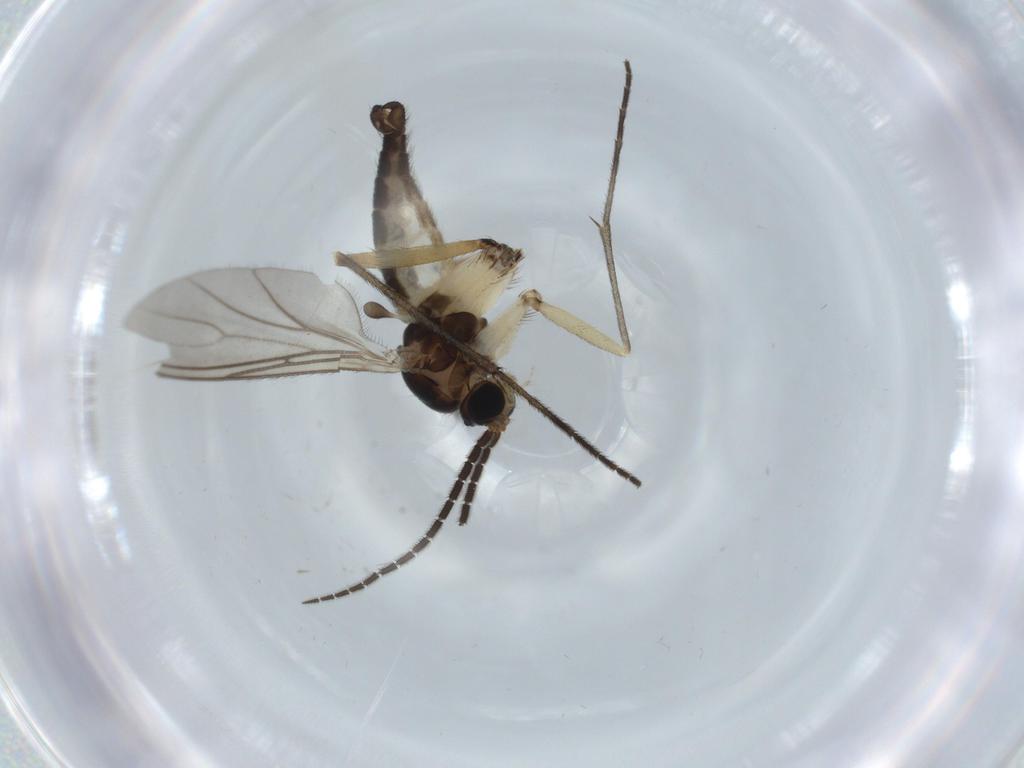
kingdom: Animalia
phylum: Arthropoda
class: Insecta
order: Diptera
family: Sciaridae
